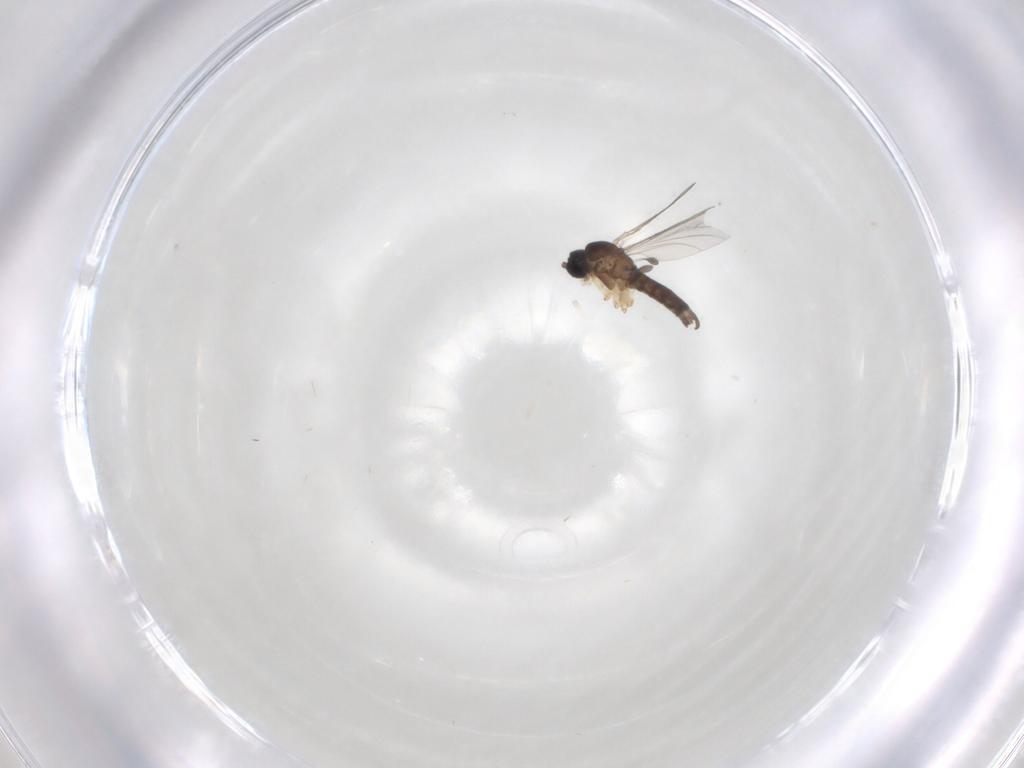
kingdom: Animalia
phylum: Arthropoda
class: Insecta
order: Diptera
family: Sciaridae
